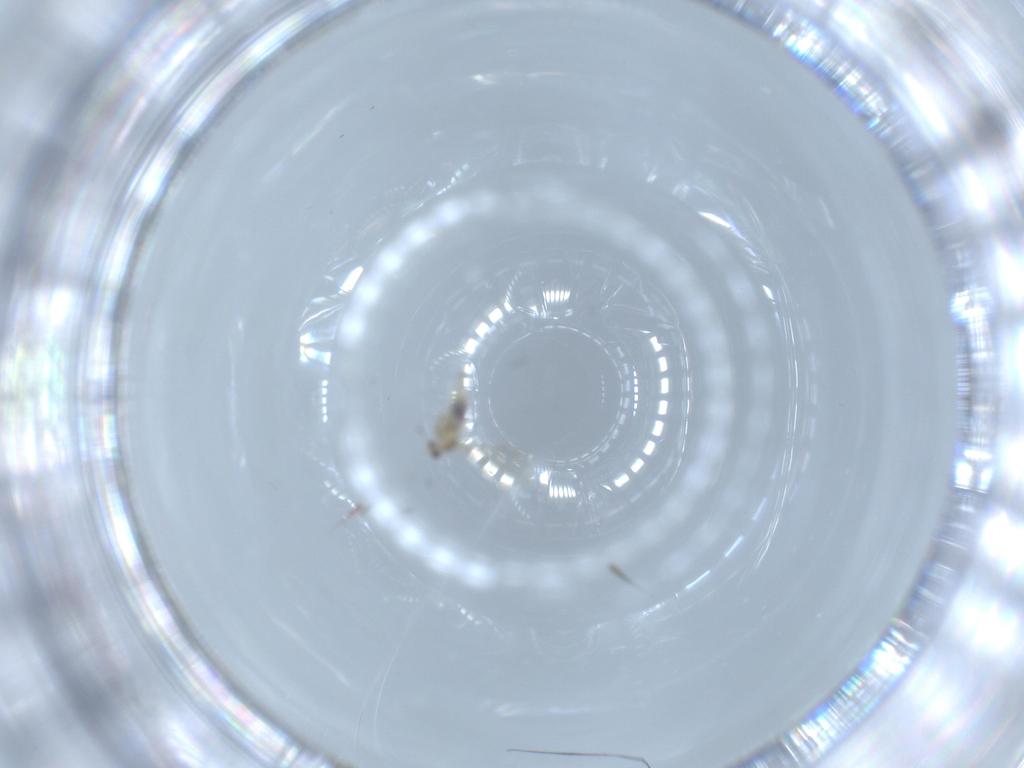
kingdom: Animalia
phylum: Arthropoda
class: Insecta
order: Diptera
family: Cecidomyiidae
